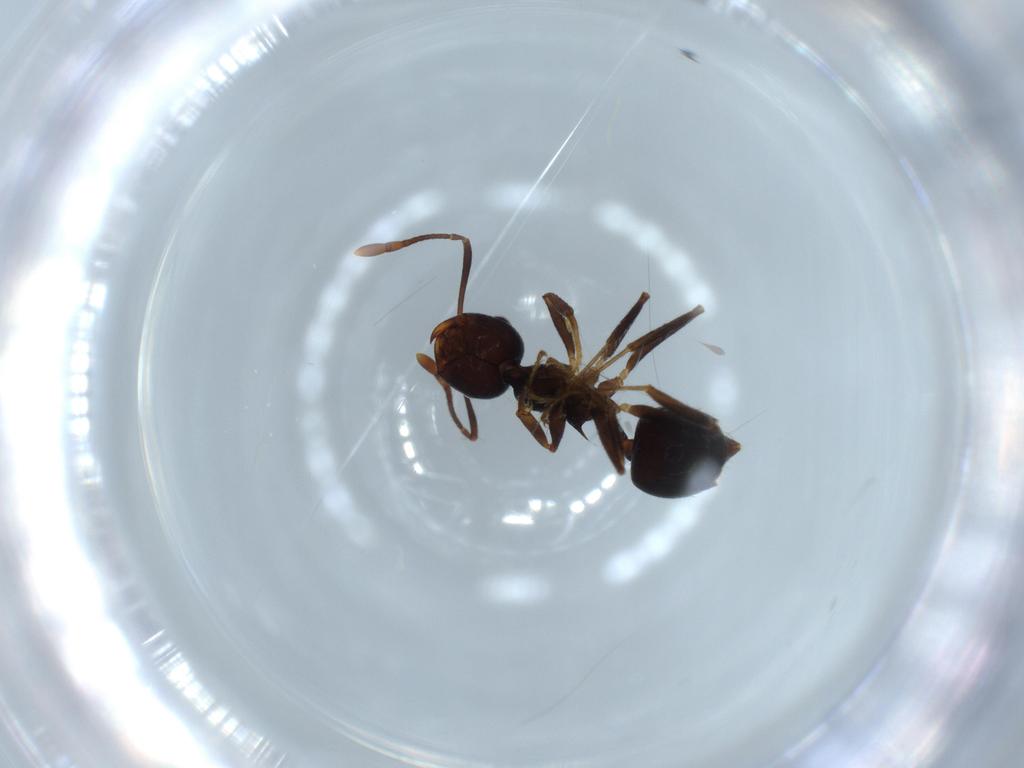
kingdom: Animalia
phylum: Arthropoda
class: Insecta
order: Hymenoptera
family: Formicidae
